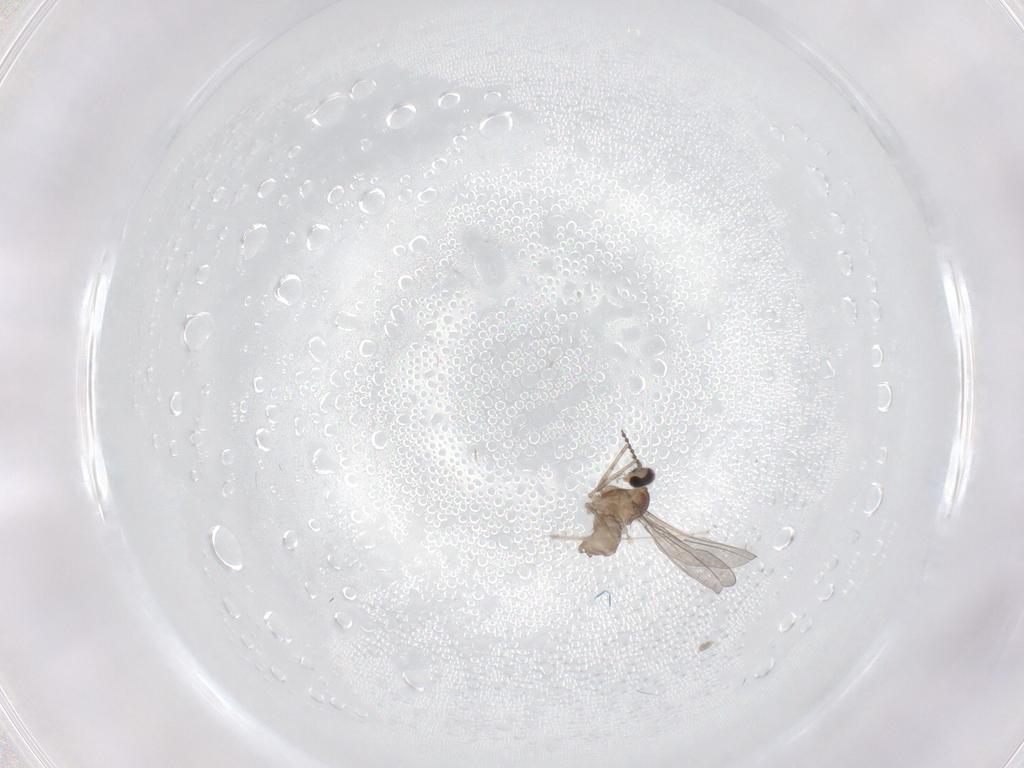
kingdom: Animalia
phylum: Arthropoda
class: Insecta
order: Diptera
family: Cecidomyiidae
